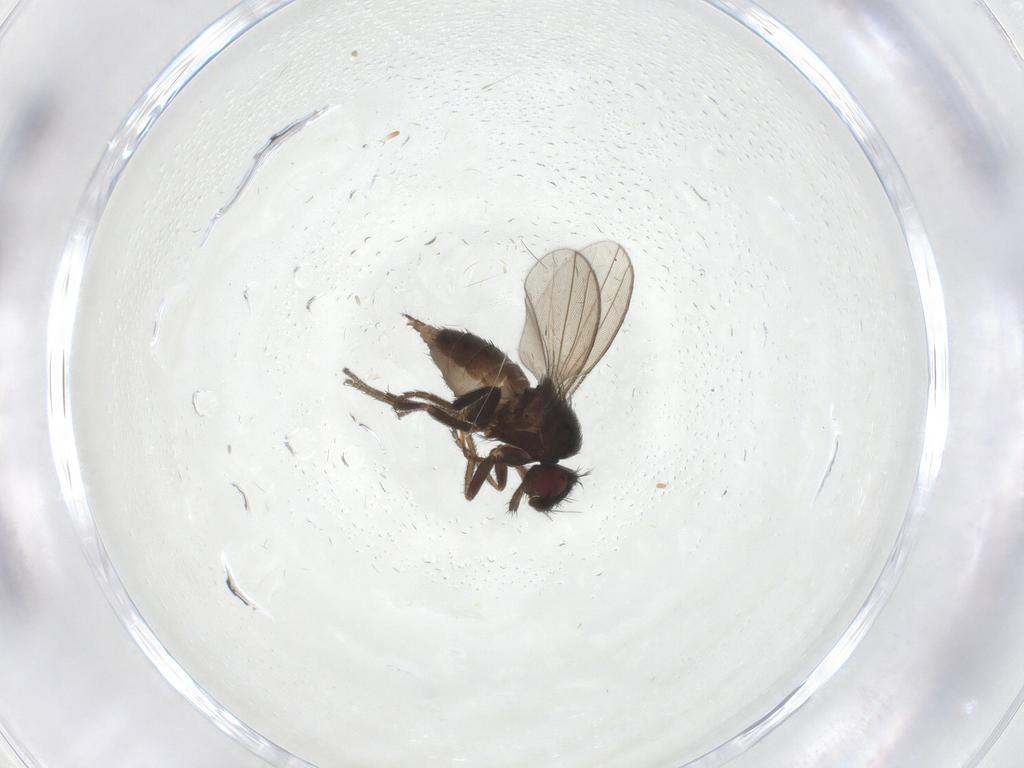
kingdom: Animalia
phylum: Arthropoda
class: Insecta
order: Diptera
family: Milichiidae
